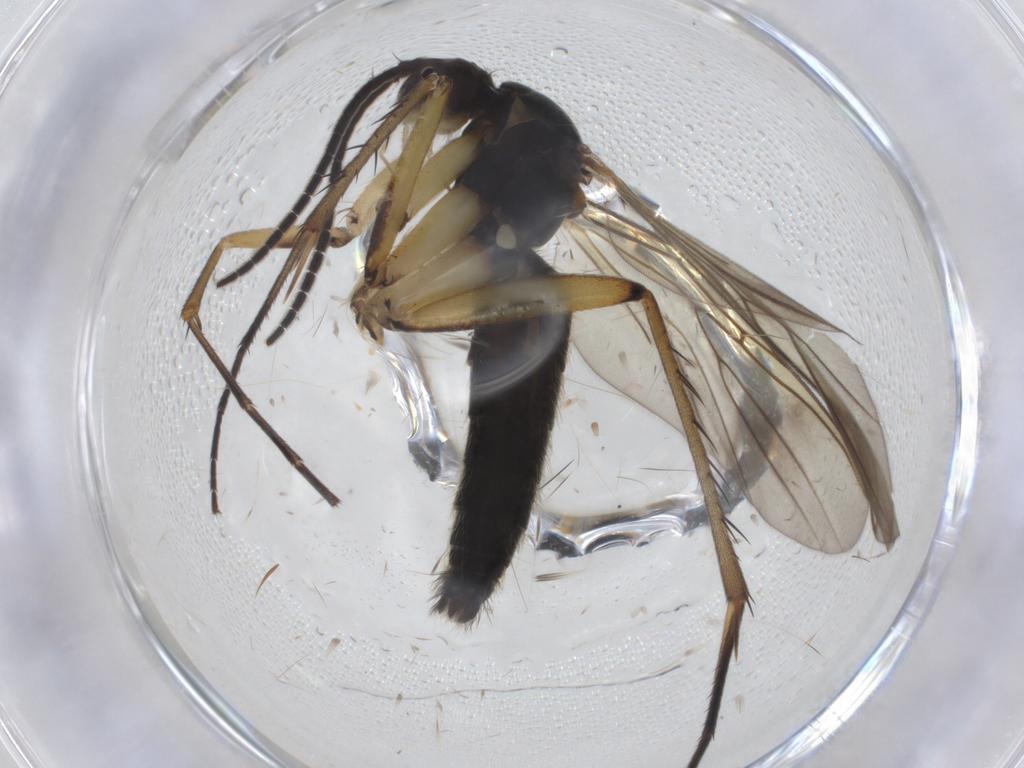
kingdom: Animalia
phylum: Arthropoda
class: Insecta
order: Diptera
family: Mycetophilidae
